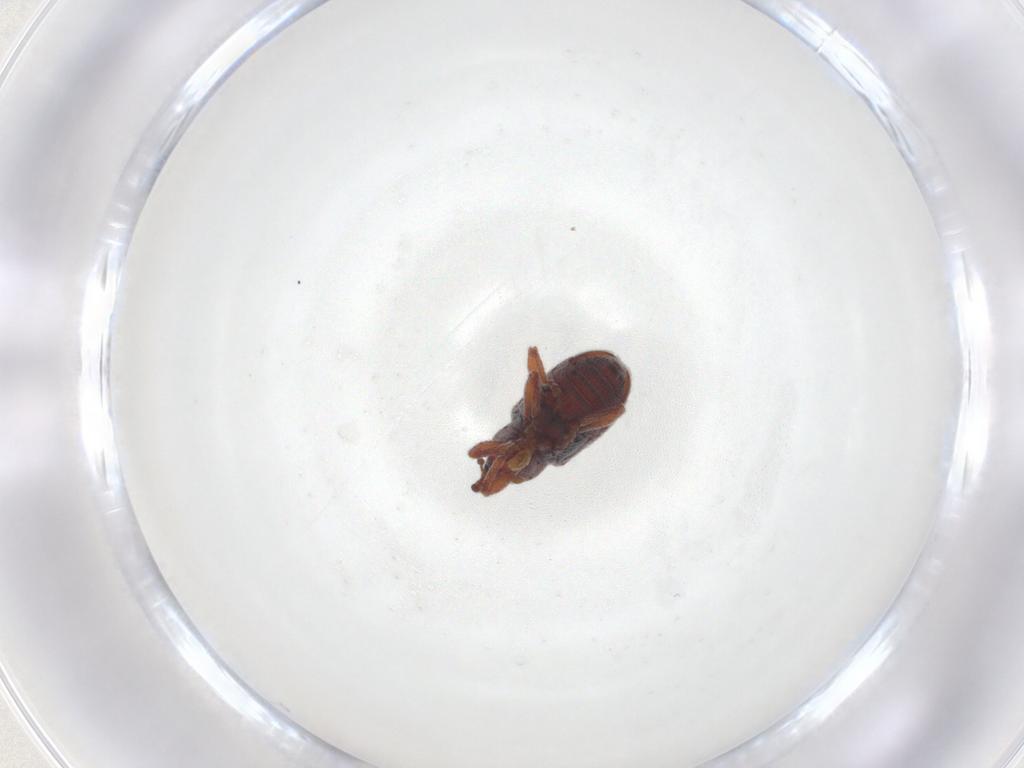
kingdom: Animalia
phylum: Arthropoda
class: Insecta
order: Coleoptera
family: Curculionidae
